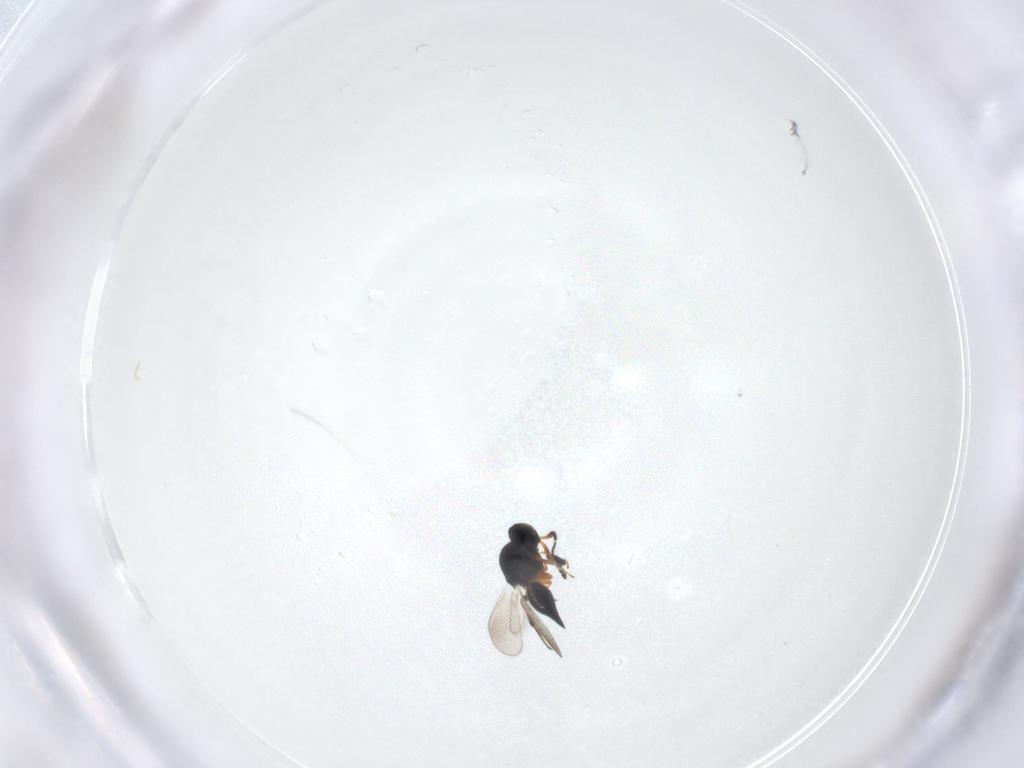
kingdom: Animalia
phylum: Arthropoda
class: Insecta
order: Hymenoptera
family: Platygastridae
